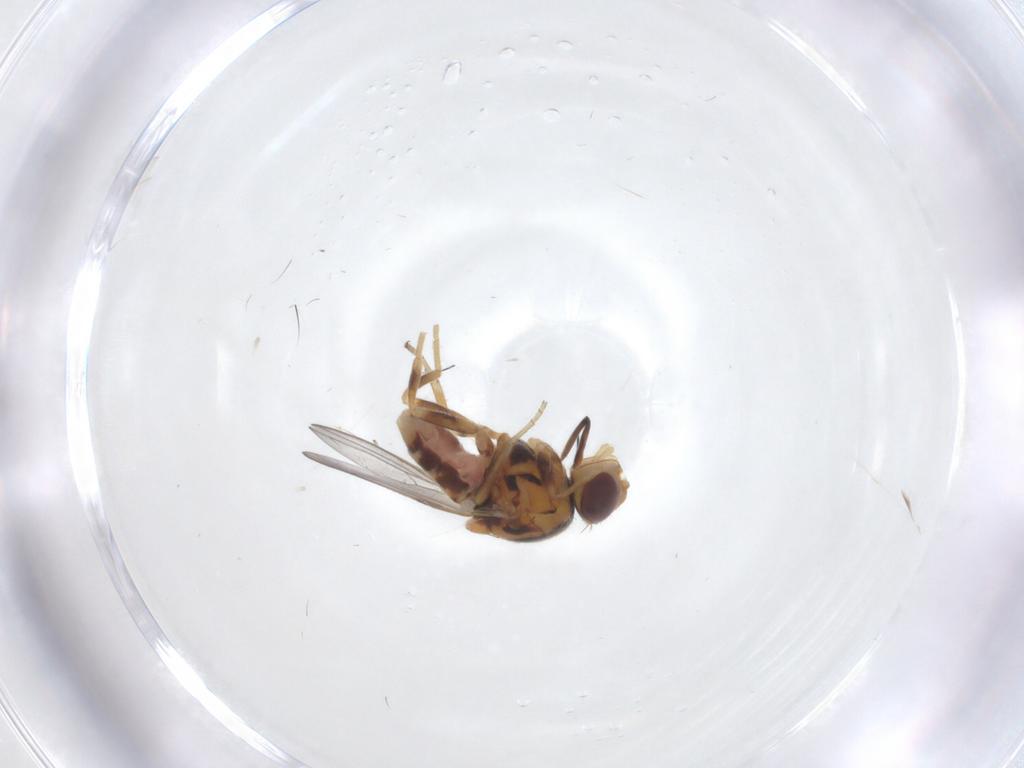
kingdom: Animalia
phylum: Arthropoda
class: Insecta
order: Diptera
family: Chloropidae
